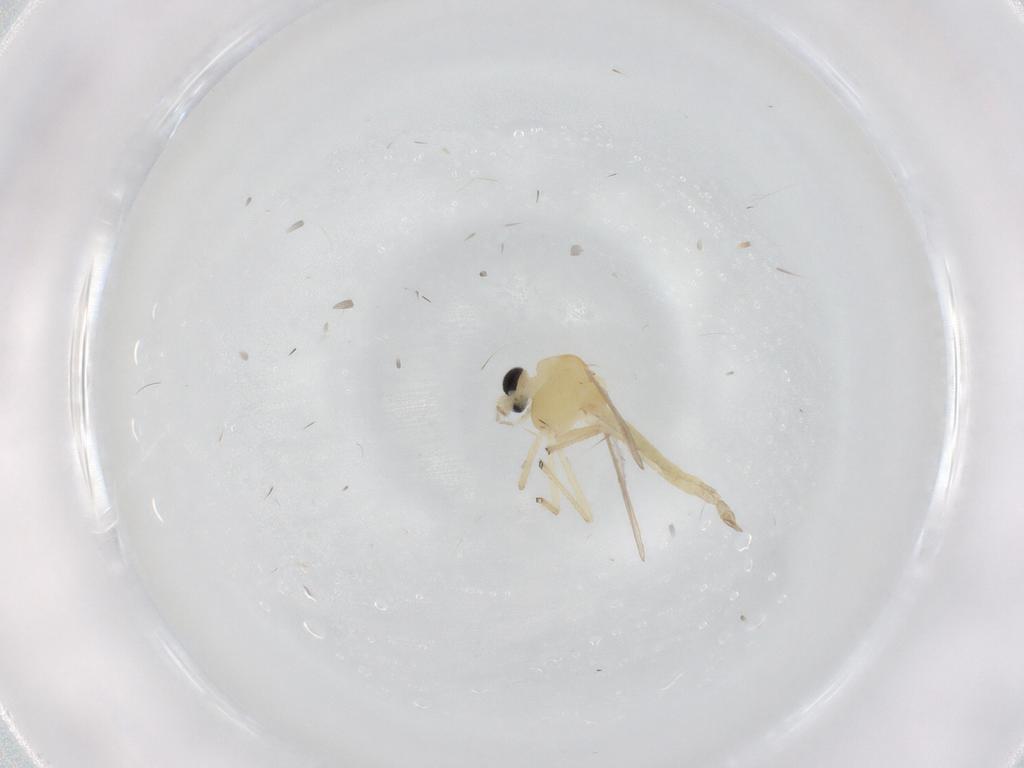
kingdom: Animalia
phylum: Arthropoda
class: Insecta
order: Diptera
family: Chironomidae
